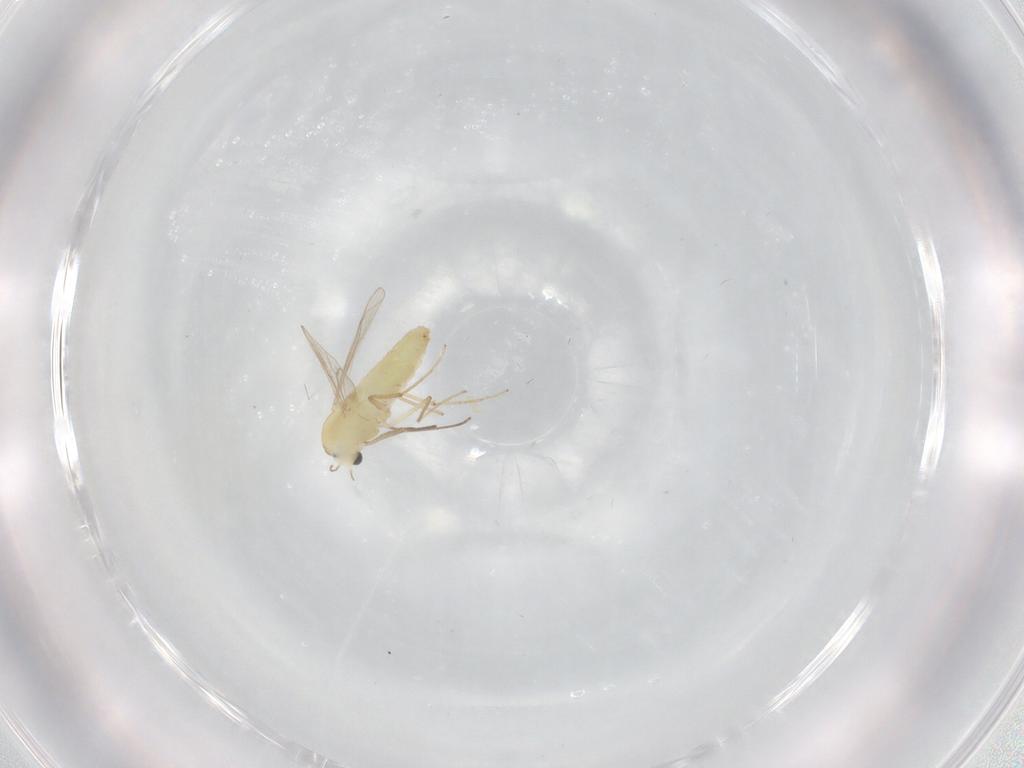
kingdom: Animalia
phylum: Arthropoda
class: Insecta
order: Diptera
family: Chironomidae
